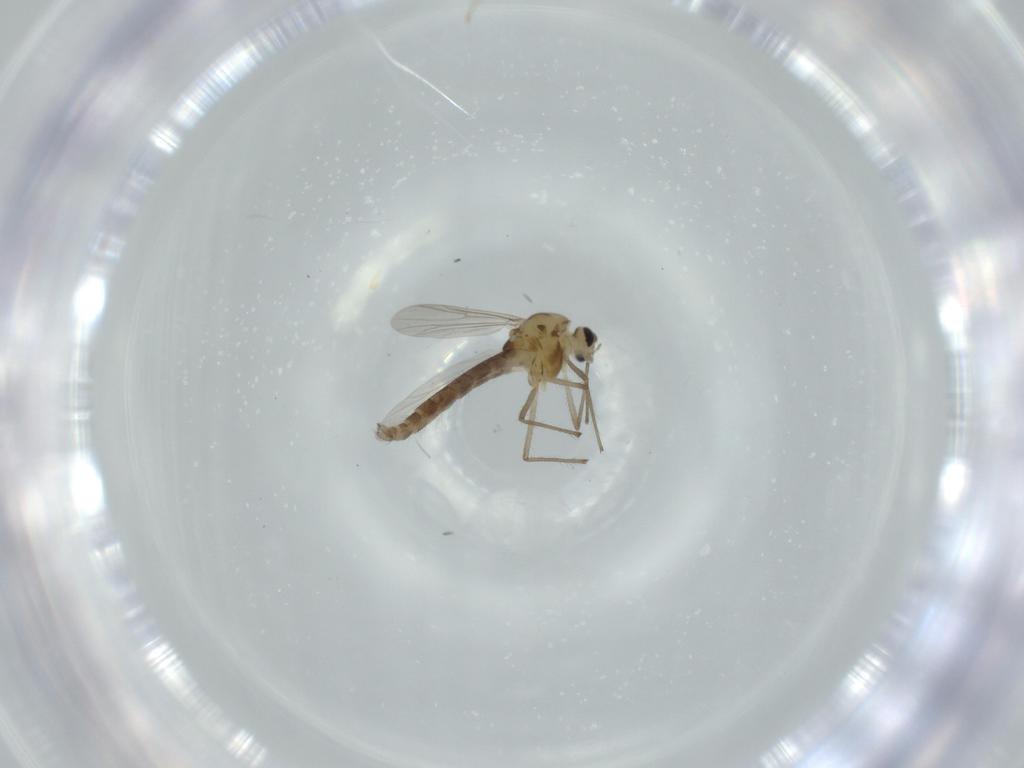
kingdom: Animalia
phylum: Arthropoda
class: Insecta
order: Diptera
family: Chironomidae
